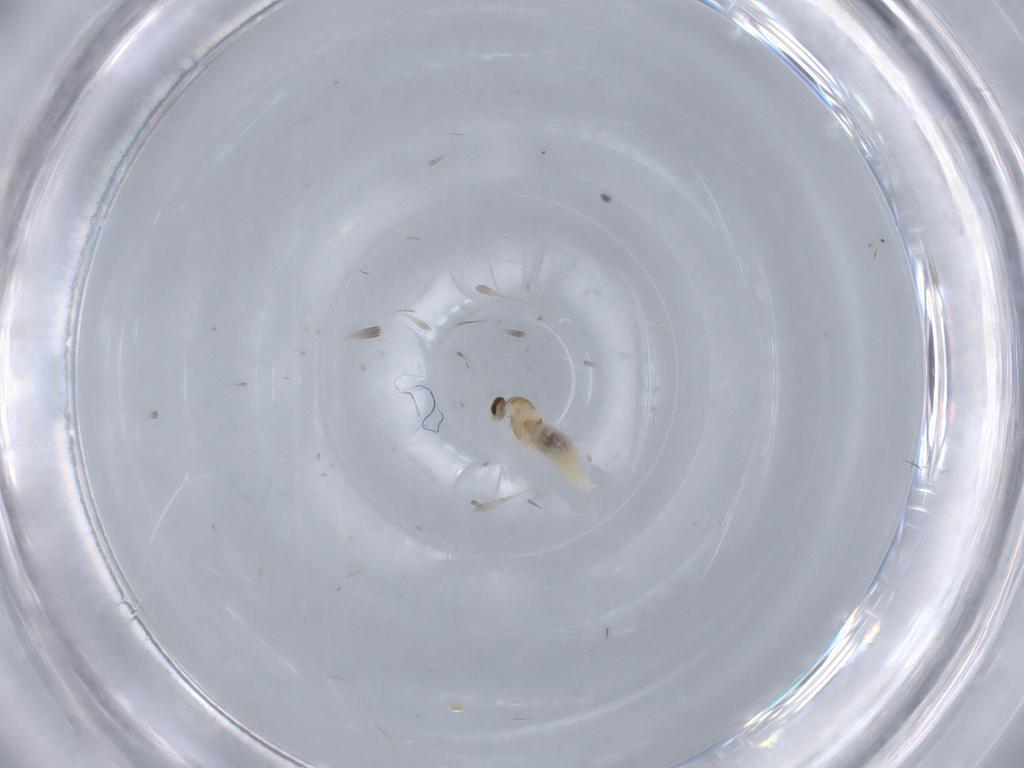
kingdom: Animalia
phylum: Arthropoda
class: Insecta
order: Diptera
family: Cecidomyiidae
